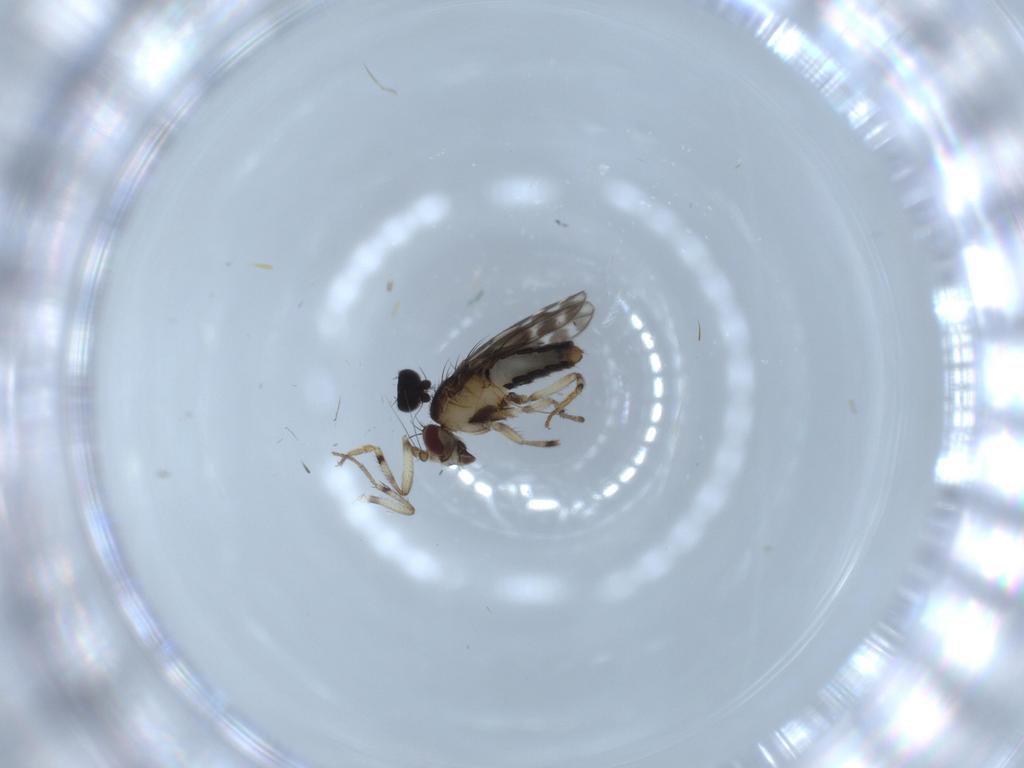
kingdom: Animalia
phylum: Arthropoda
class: Insecta
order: Diptera
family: Sphaeroceridae
